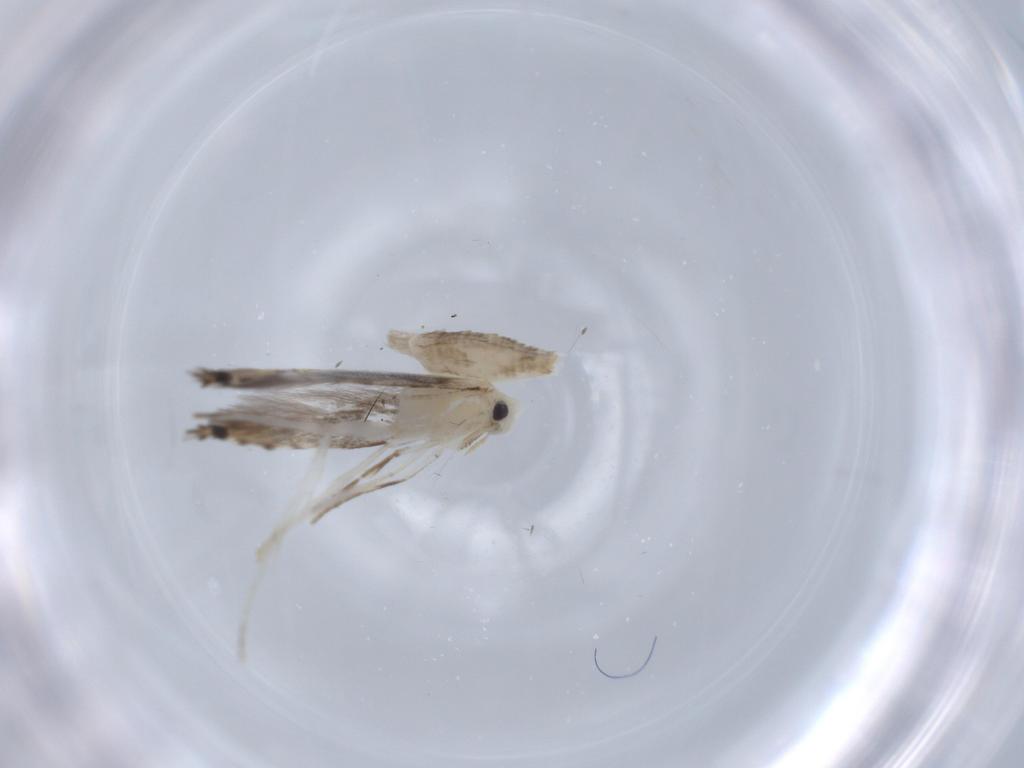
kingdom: Animalia
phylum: Arthropoda
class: Insecta
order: Lepidoptera
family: Nepticulidae
